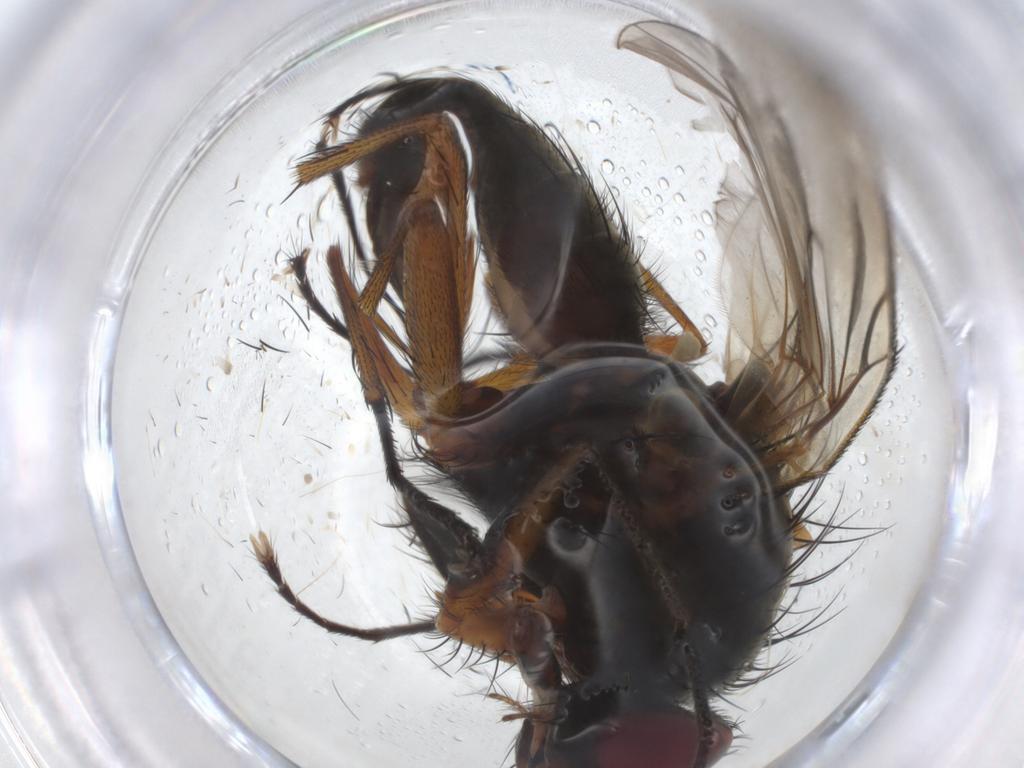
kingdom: Animalia
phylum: Arthropoda
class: Insecta
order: Diptera
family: Anthomyiidae
